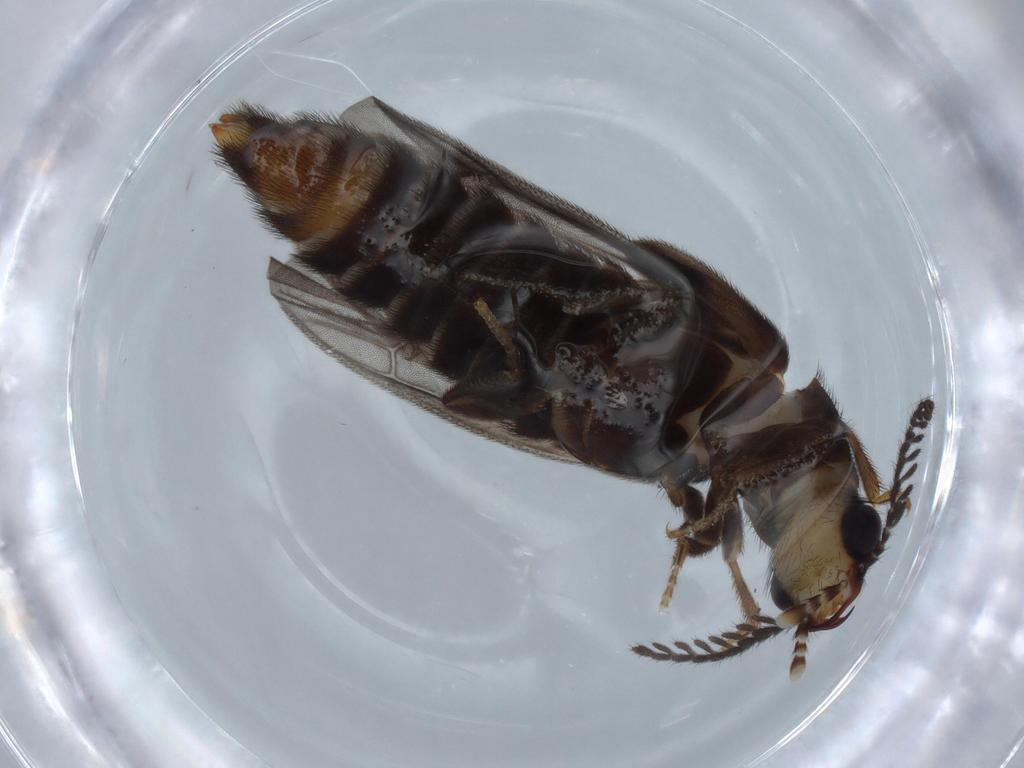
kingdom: Animalia
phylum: Arthropoda
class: Insecta
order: Coleoptera
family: Phengodidae
